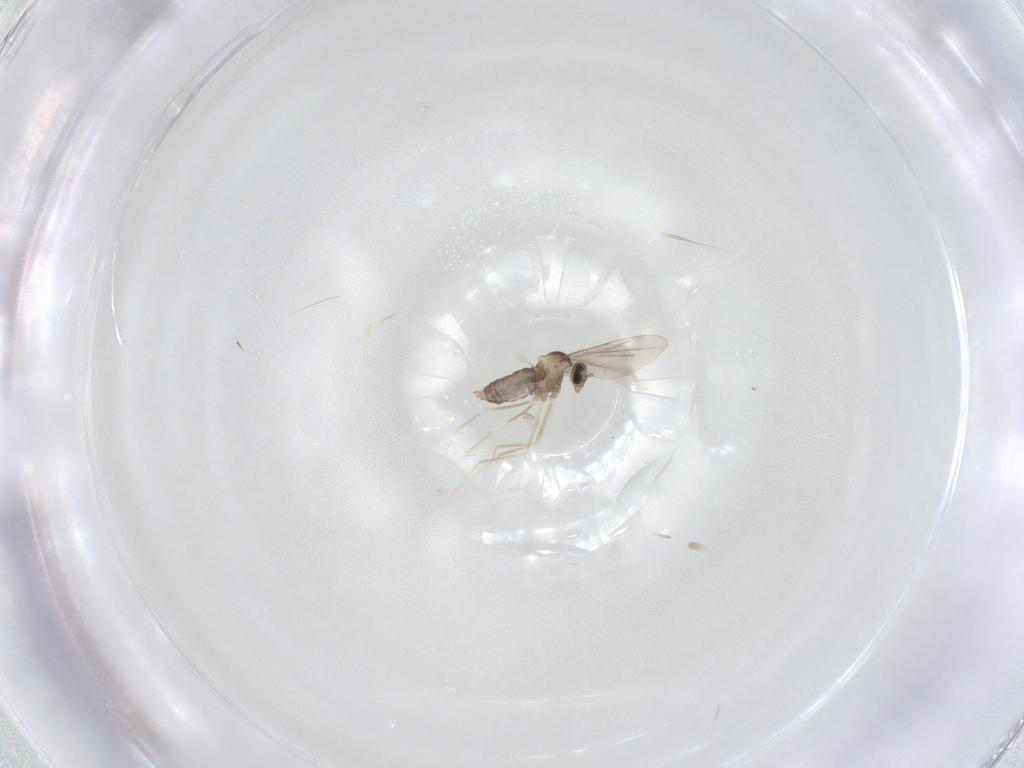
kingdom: Animalia
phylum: Arthropoda
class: Insecta
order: Diptera
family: Cecidomyiidae
